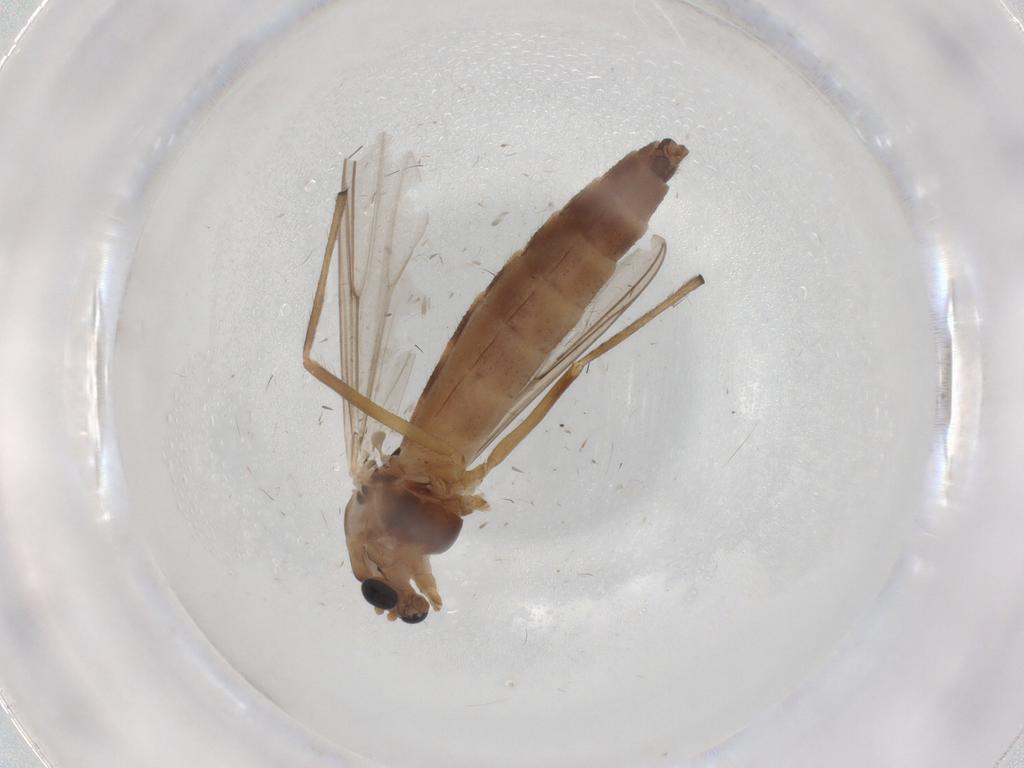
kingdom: Animalia
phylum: Arthropoda
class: Insecta
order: Diptera
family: Chironomidae
